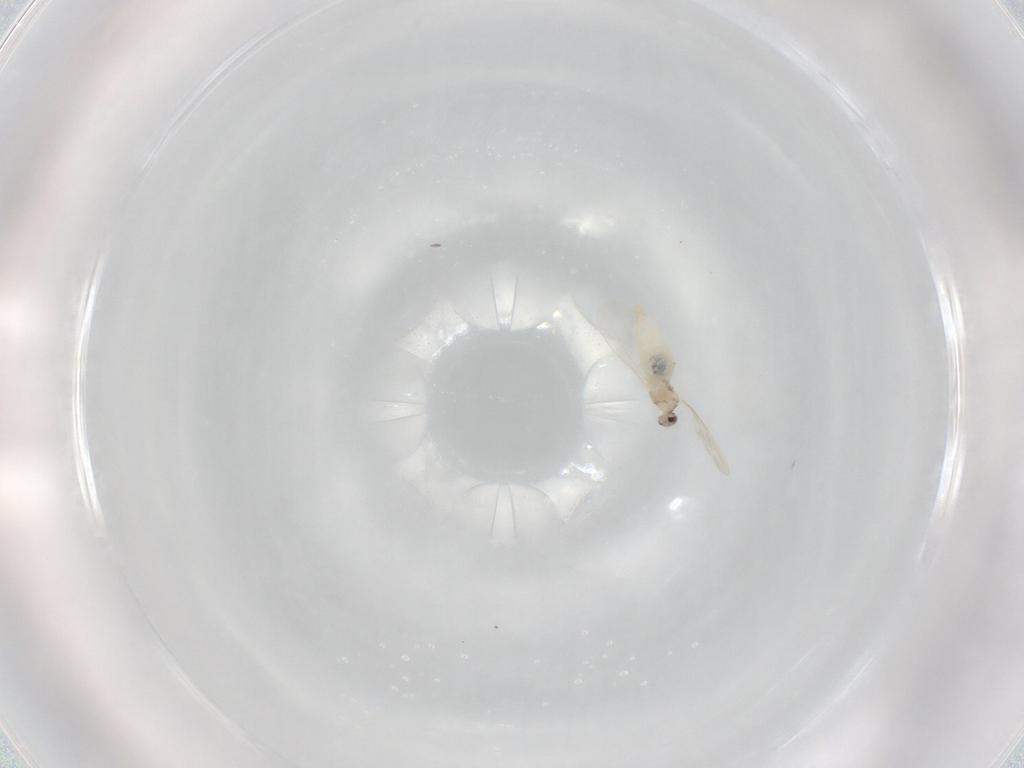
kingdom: Animalia
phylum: Arthropoda
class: Insecta
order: Diptera
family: Cecidomyiidae
